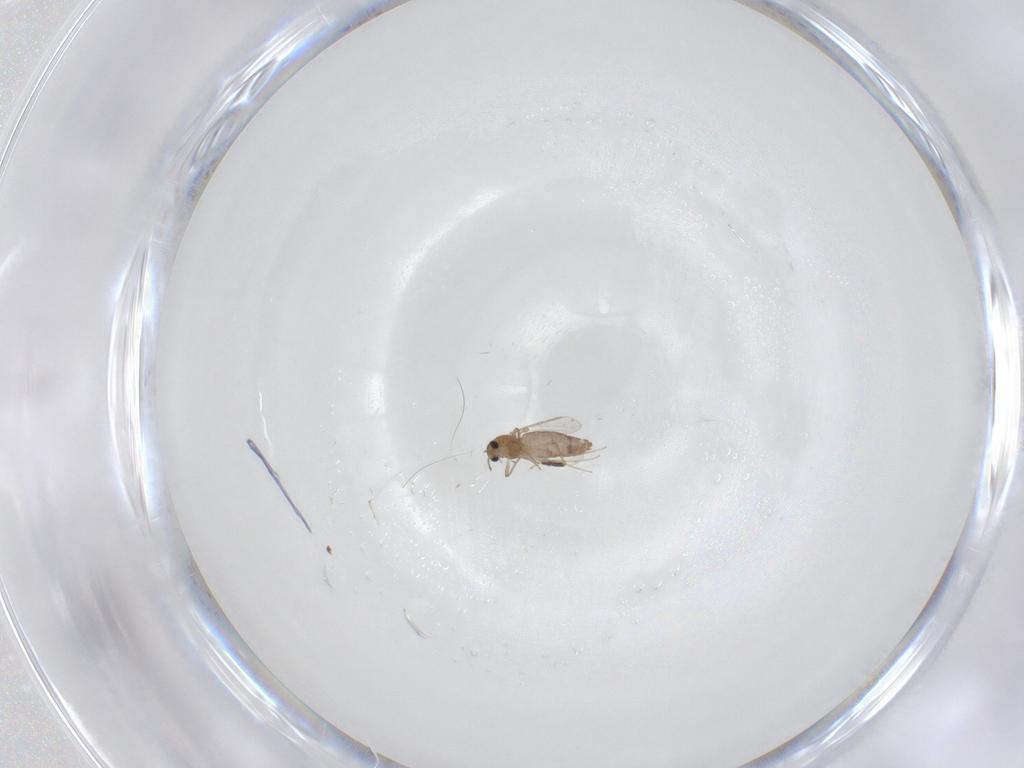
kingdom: Animalia
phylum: Arthropoda
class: Insecta
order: Diptera
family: Chironomidae
